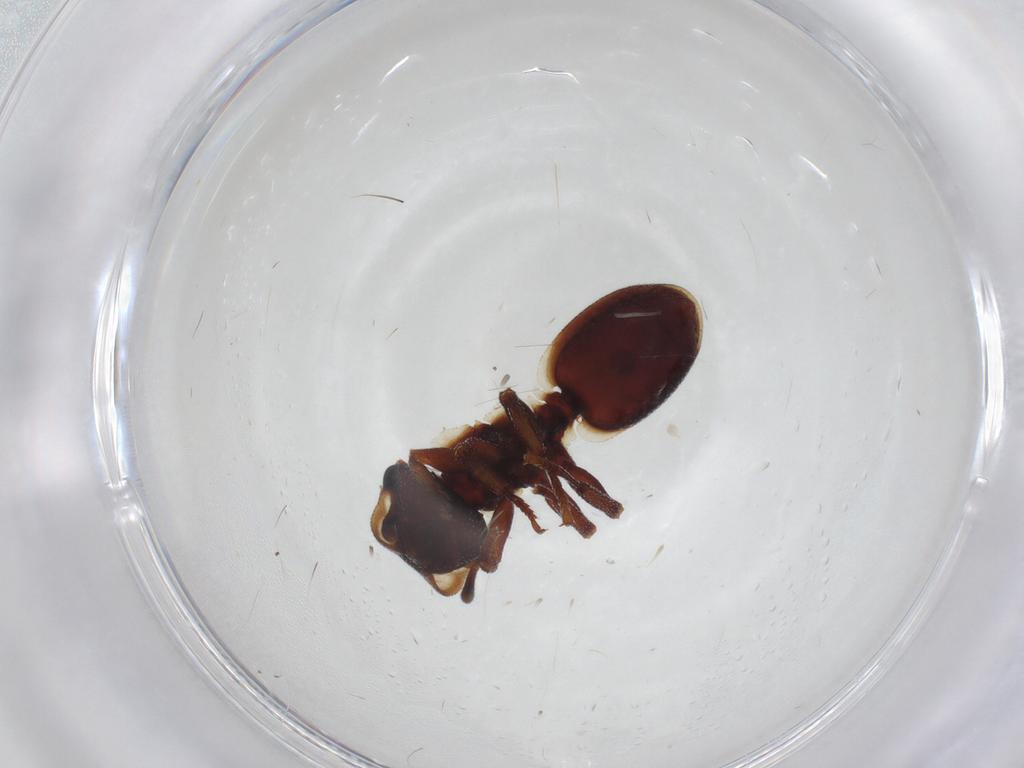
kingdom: Animalia
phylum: Arthropoda
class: Insecta
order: Hymenoptera
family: Formicidae
